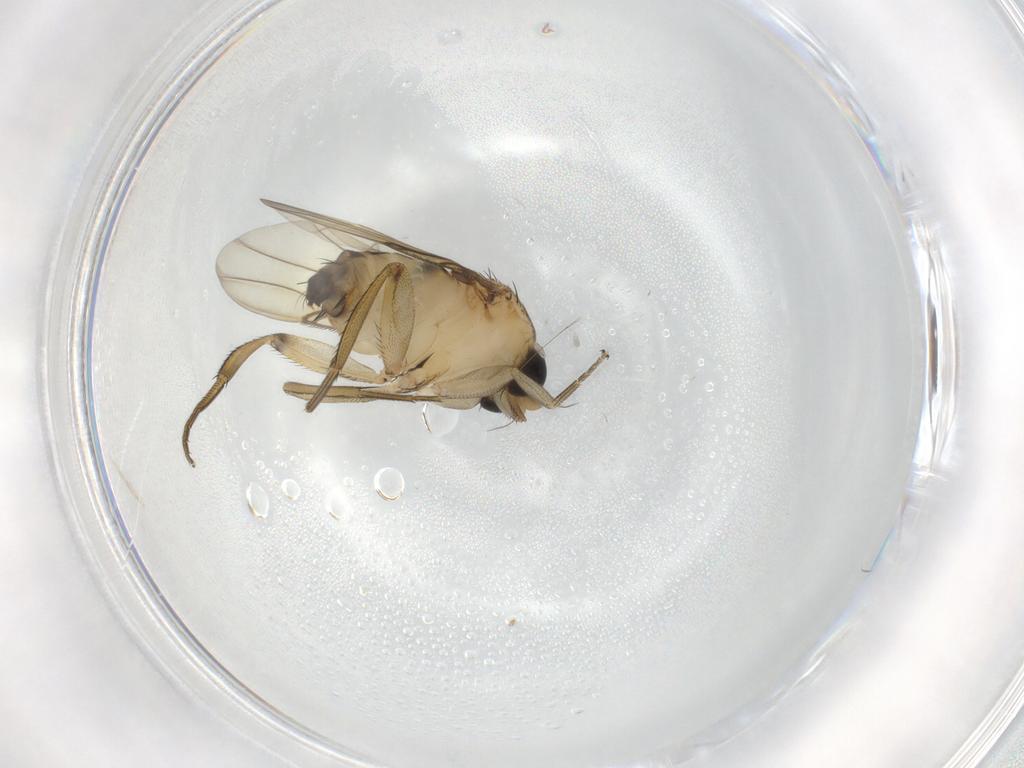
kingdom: Animalia
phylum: Arthropoda
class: Insecta
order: Diptera
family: Phoridae
